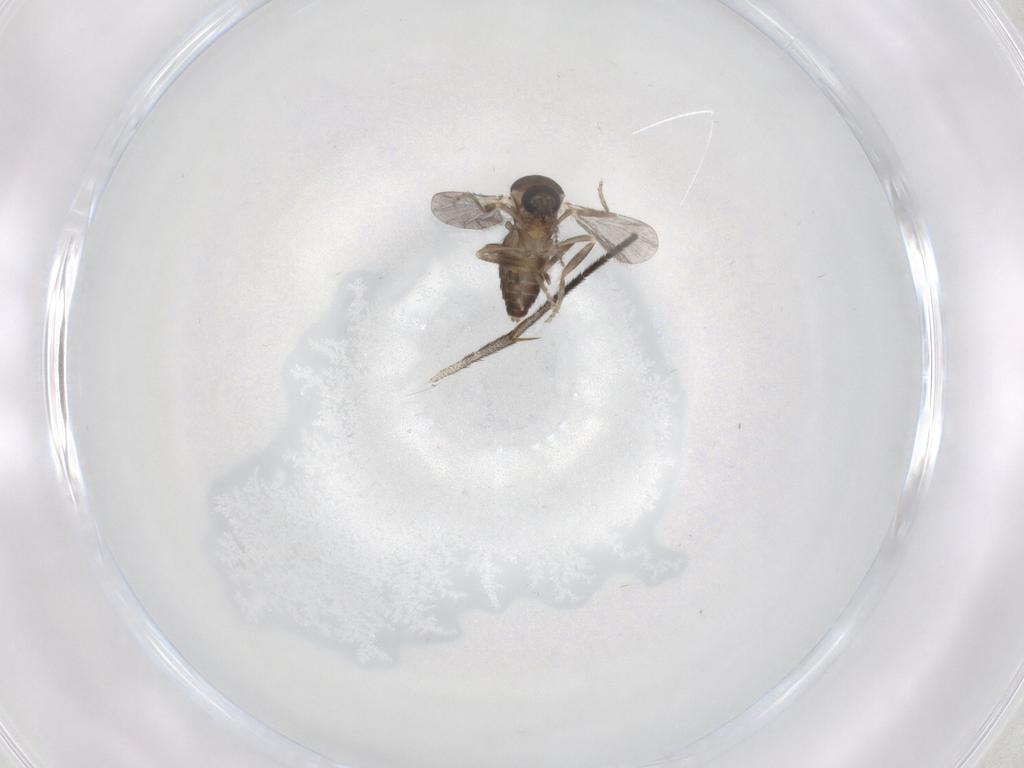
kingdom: Animalia
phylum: Arthropoda
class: Insecta
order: Diptera
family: Ceratopogonidae
